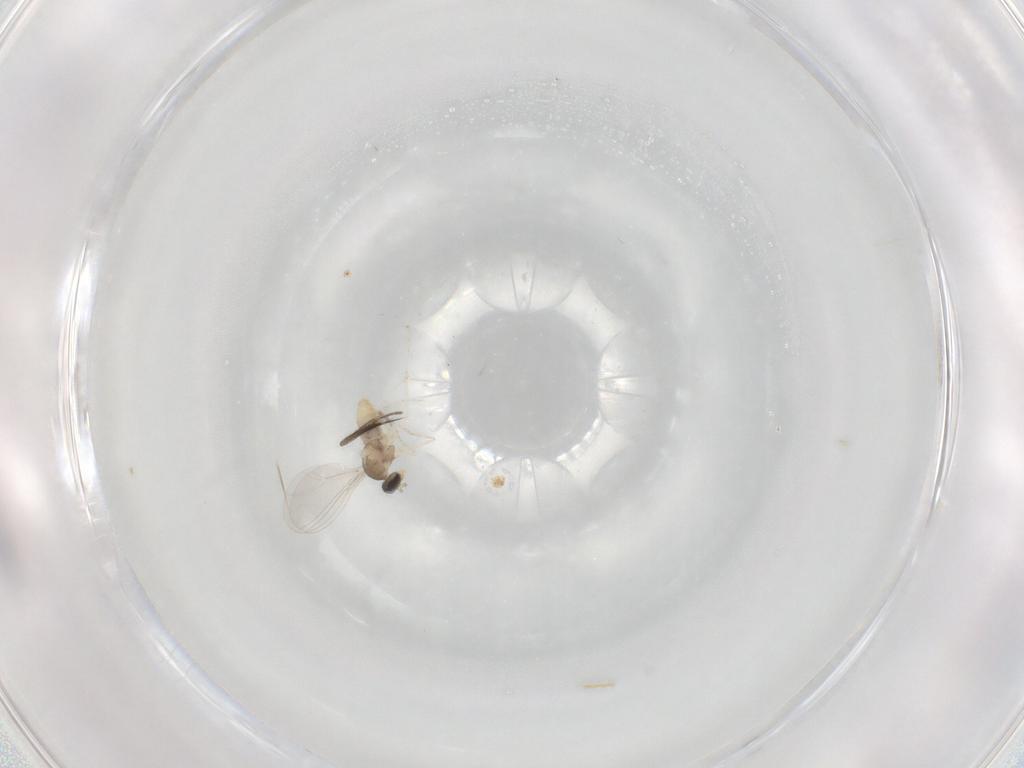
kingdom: Animalia
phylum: Arthropoda
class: Insecta
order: Diptera
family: Cecidomyiidae
